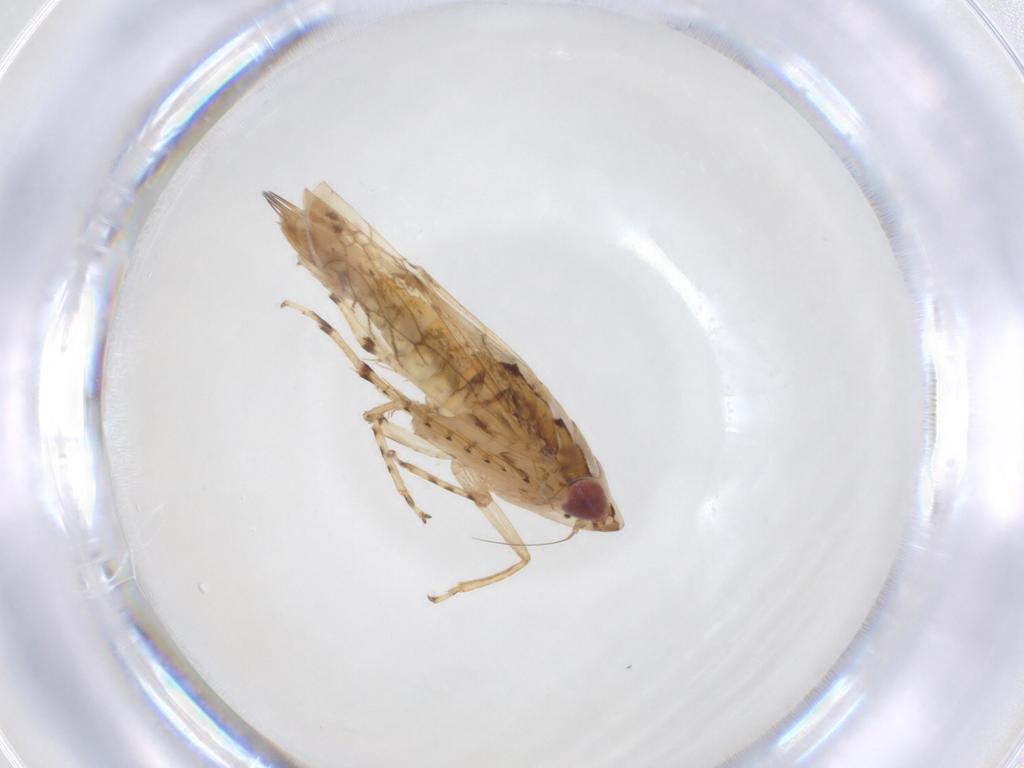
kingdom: Animalia
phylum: Arthropoda
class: Insecta
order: Hemiptera
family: Cicadellidae
